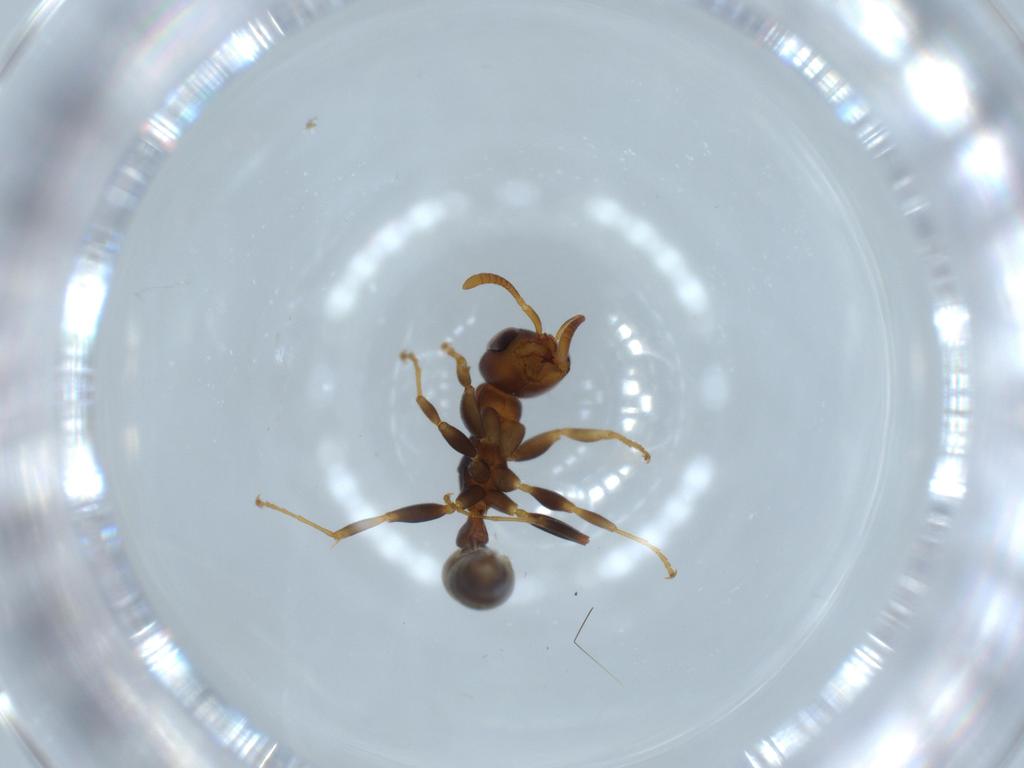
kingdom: Animalia
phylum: Arthropoda
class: Insecta
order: Hymenoptera
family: Formicidae
